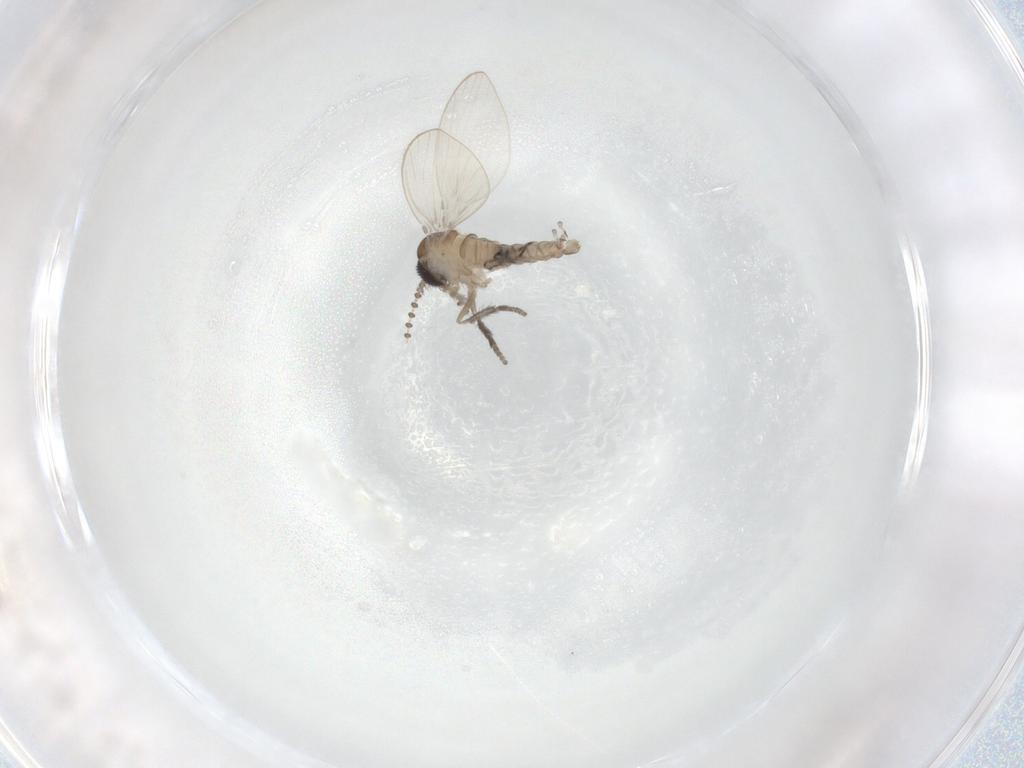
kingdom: Animalia
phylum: Arthropoda
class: Insecta
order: Diptera
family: Psychodidae
